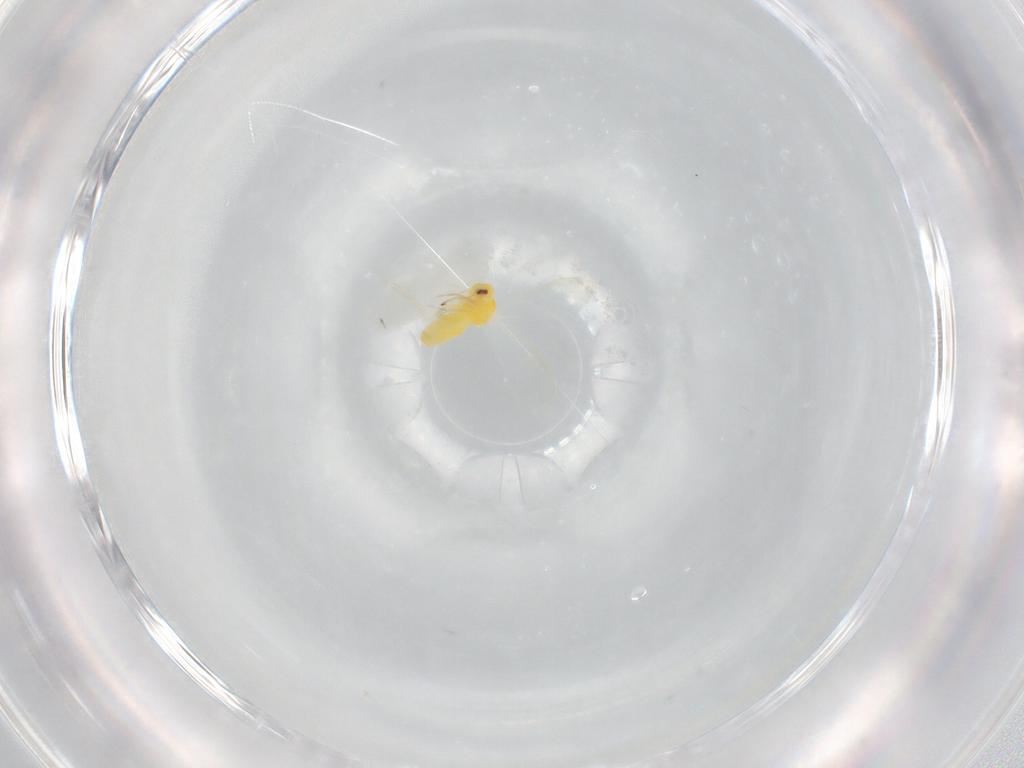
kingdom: Animalia
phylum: Arthropoda
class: Insecta
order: Hemiptera
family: Aleyrodidae
